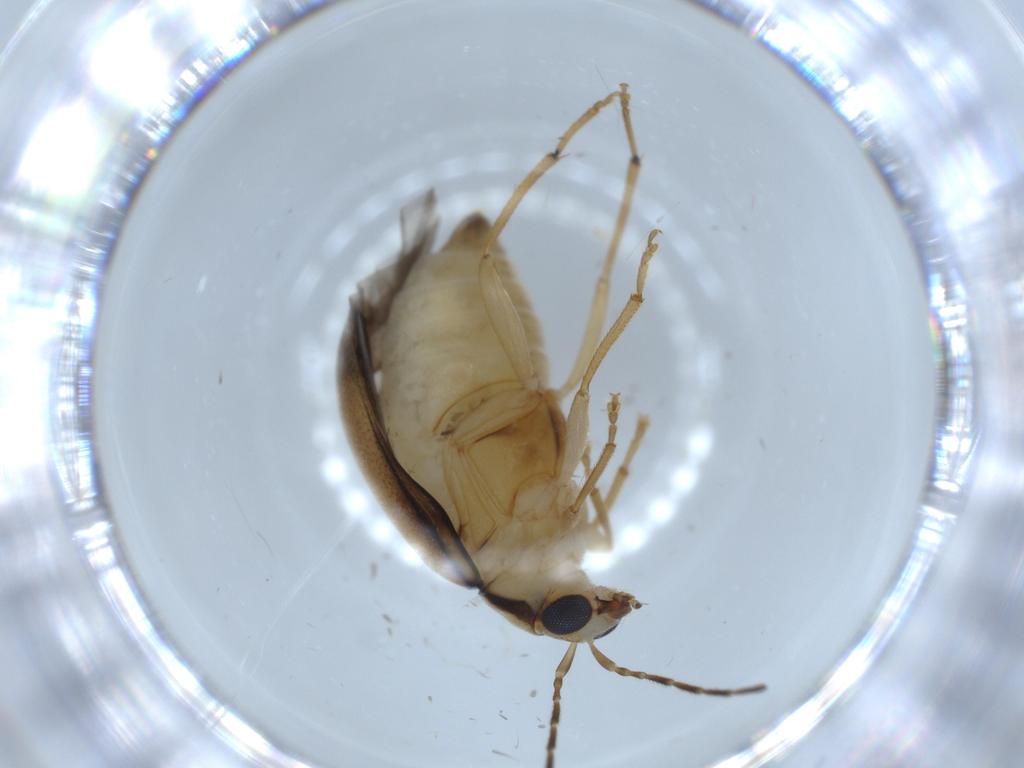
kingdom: Animalia
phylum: Arthropoda
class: Insecta
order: Coleoptera
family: Chrysomelidae
